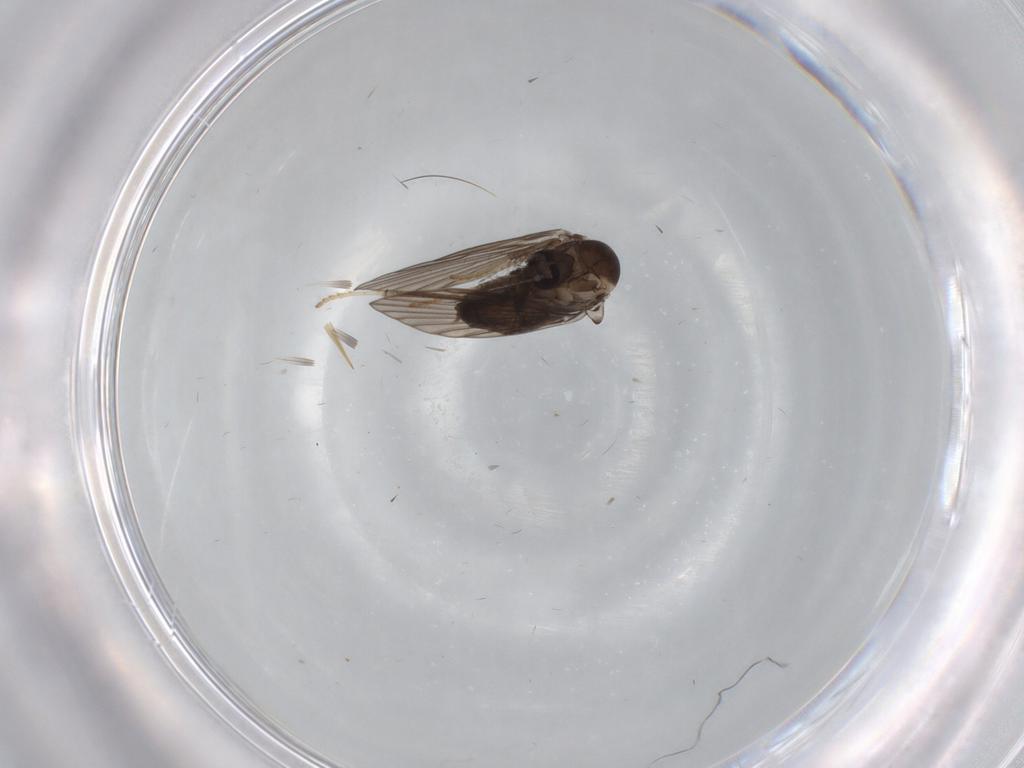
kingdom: Animalia
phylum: Arthropoda
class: Insecta
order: Diptera
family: Psychodidae
